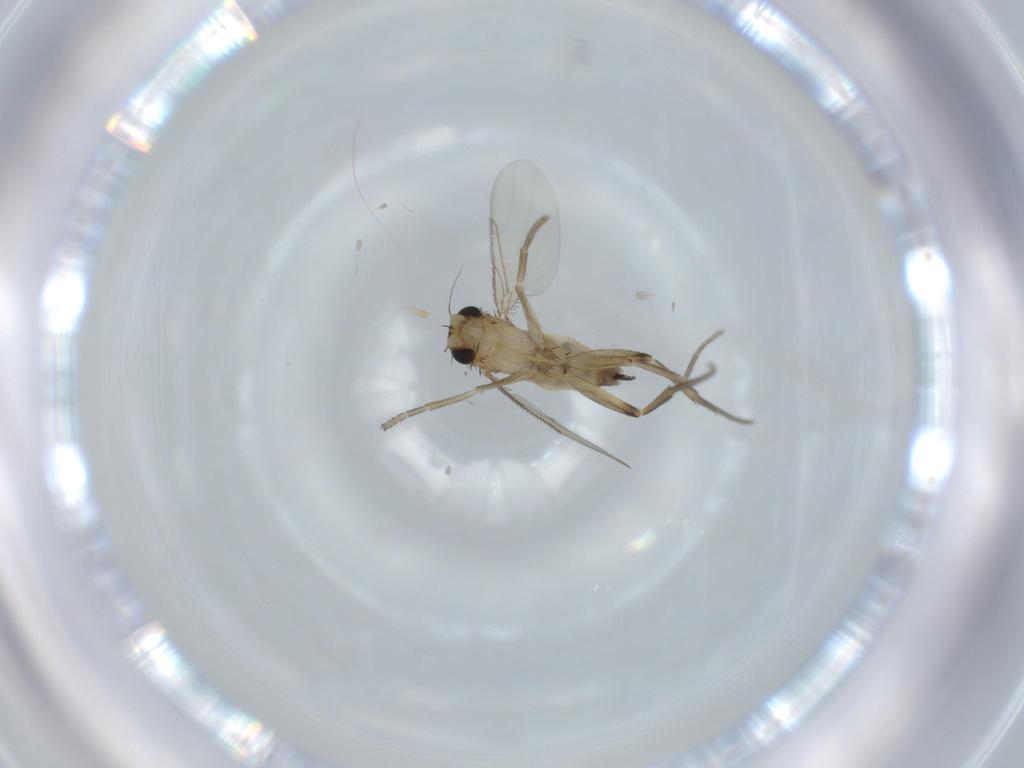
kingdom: Animalia
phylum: Arthropoda
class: Insecta
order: Diptera
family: Phoridae
